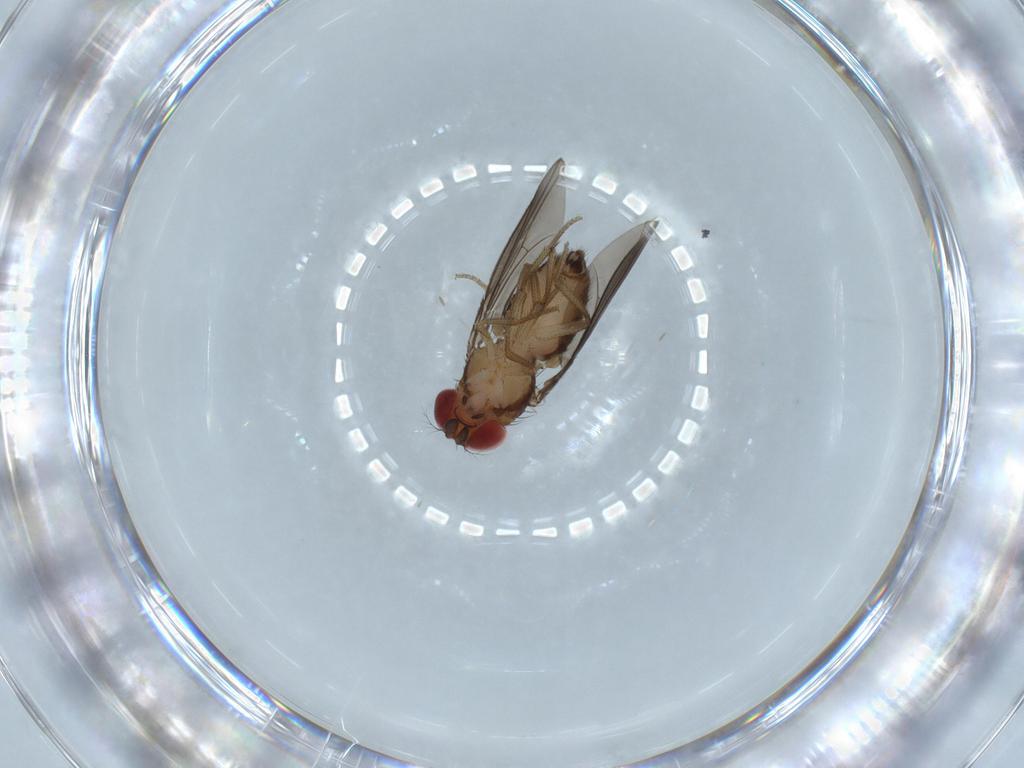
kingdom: Animalia
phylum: Arthropoda
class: Insecta
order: Diptera
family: Drosophilidae
